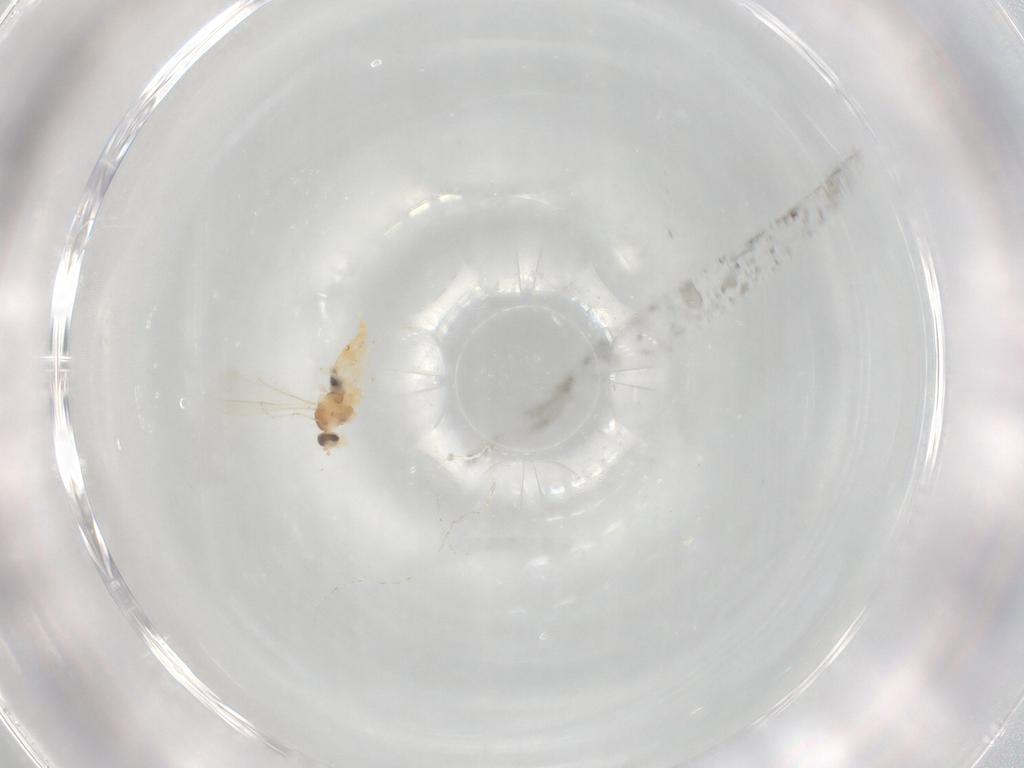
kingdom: Animalia
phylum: Arthropoda
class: Insecta
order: Diptera
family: Cecidomyiidae
